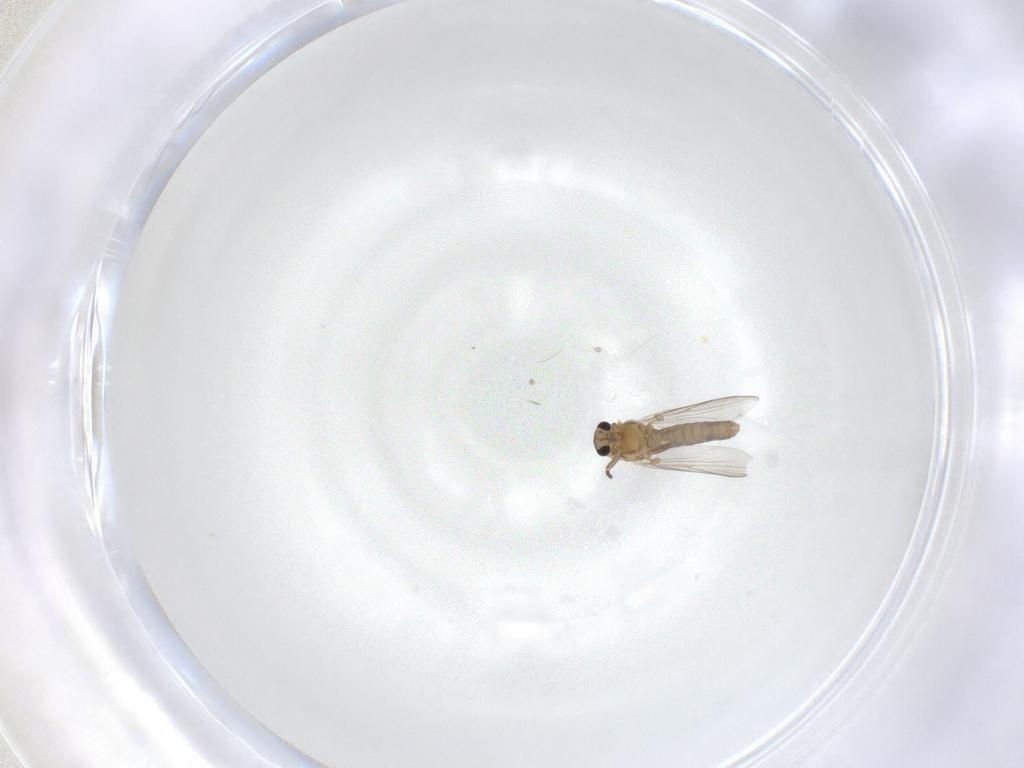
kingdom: Animalia
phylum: Arthropoda
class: Insecta
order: Diptera
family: Chironomidae
